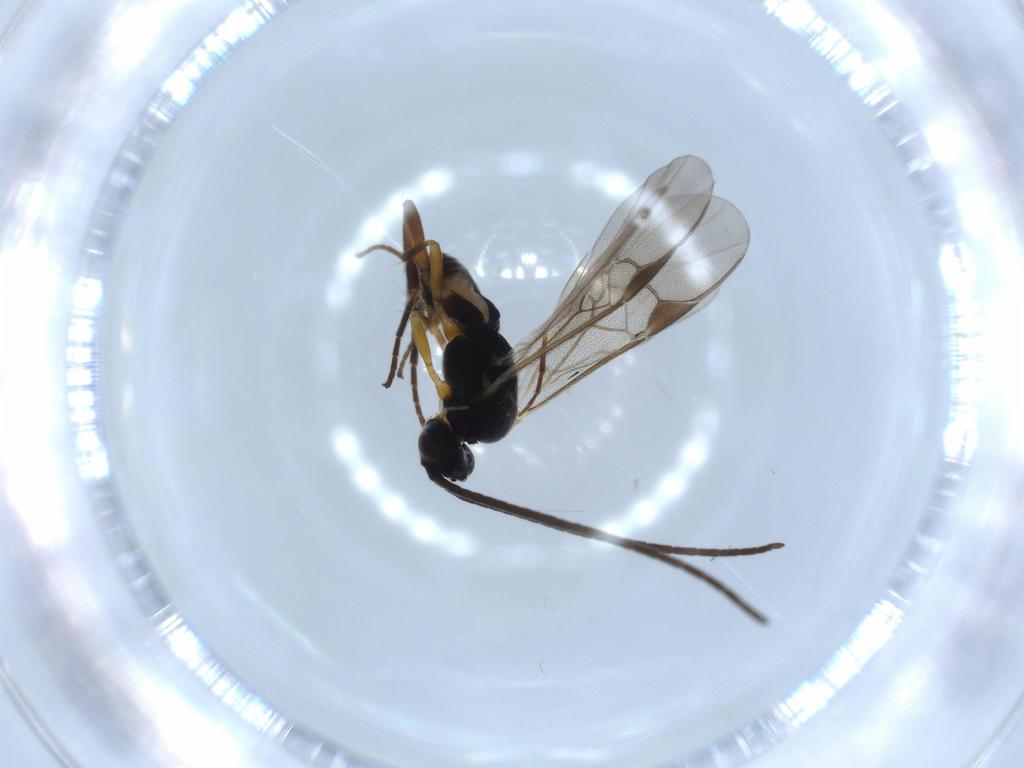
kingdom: Animalia
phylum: Arthropoda
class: Insecta
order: Hymenoptera
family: Braconidae
